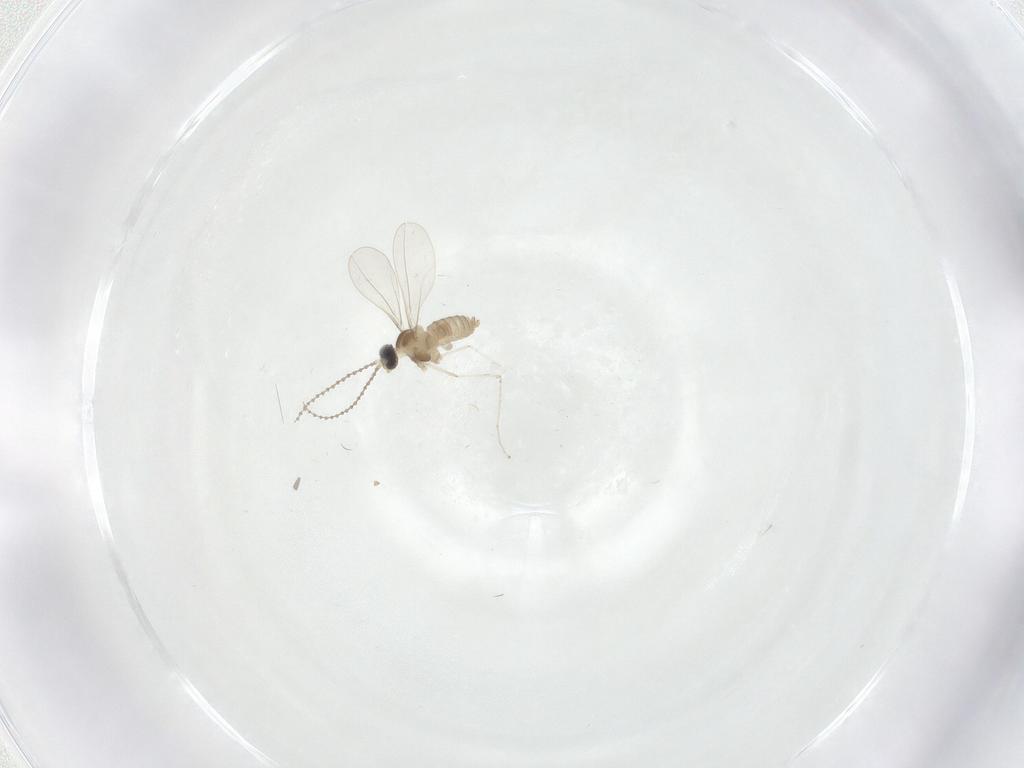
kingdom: Animalia
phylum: Arthropoda
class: Insecta
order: Diptera
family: Cecidomyiidae
